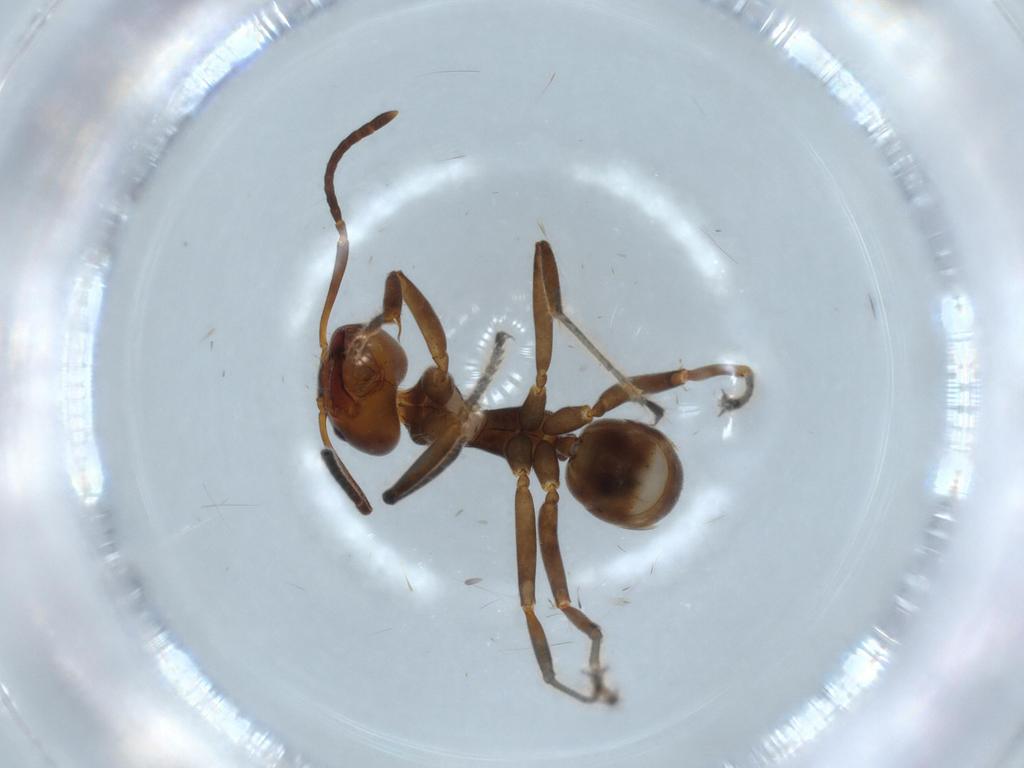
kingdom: Animalia
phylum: Arthropoda
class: Insecta
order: Hymenoptera
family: Formicidae
